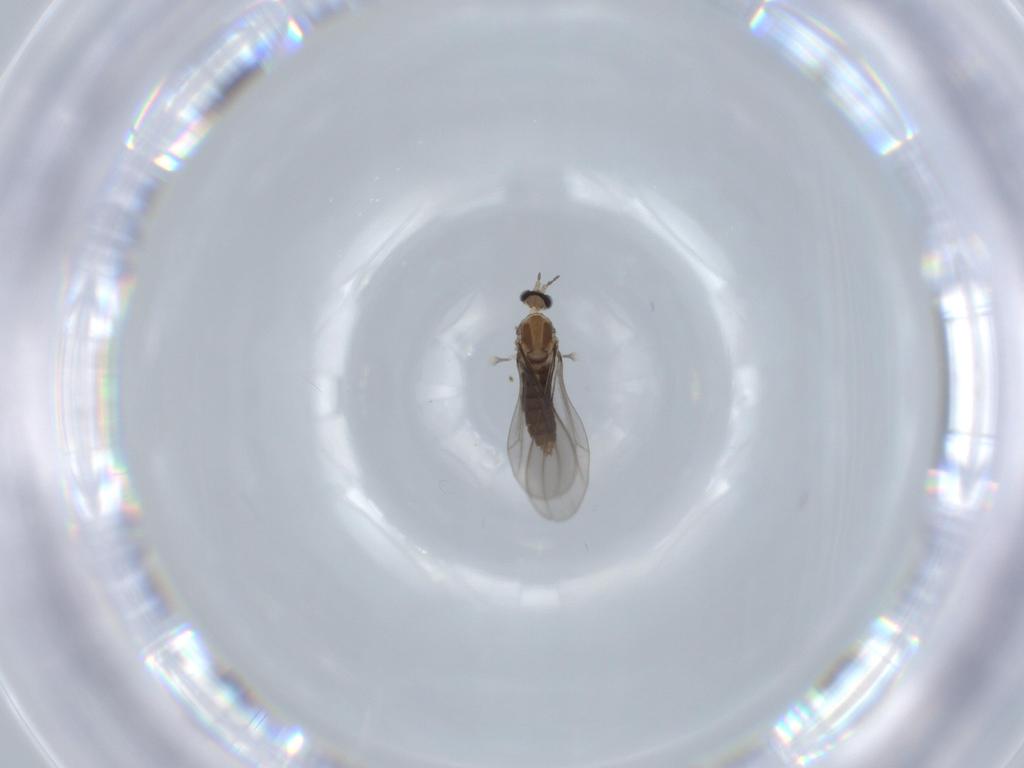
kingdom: Animalia
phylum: Arthropoda
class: Insecta
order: Diptera
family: Cecidomyiidae
